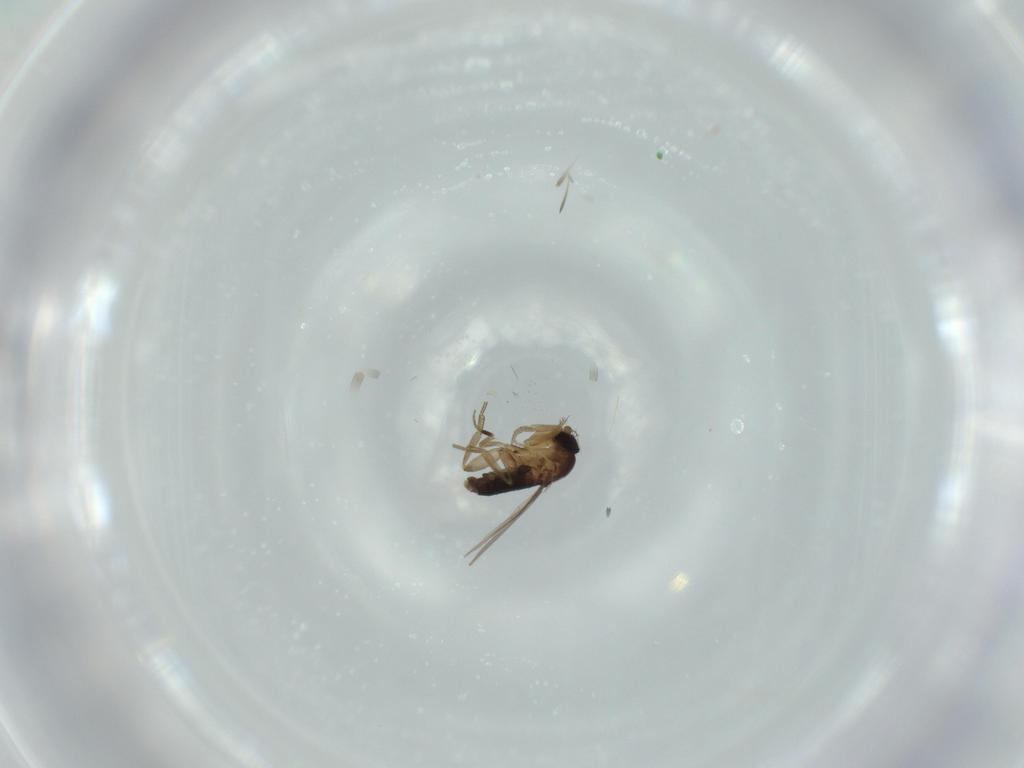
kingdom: Animalia
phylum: Arthropoda
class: Insecta
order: Diptera
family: Phoridae
